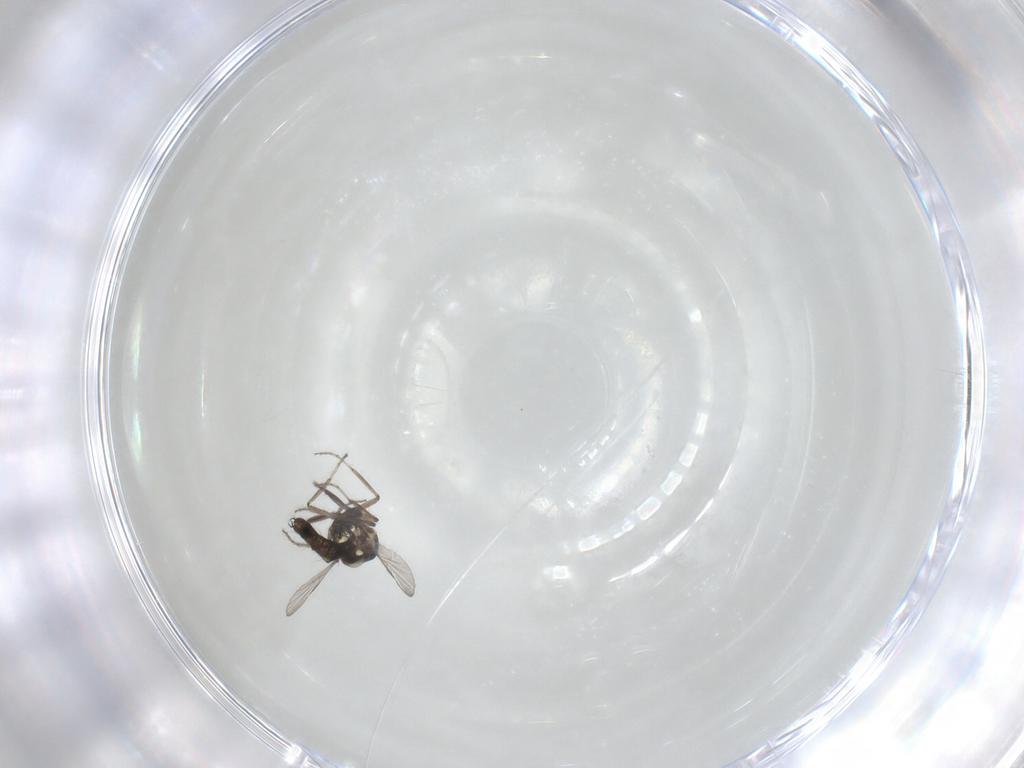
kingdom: Animalia
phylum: Arthropoda
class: Insecta
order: Diptera
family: Ceratopogonidae
